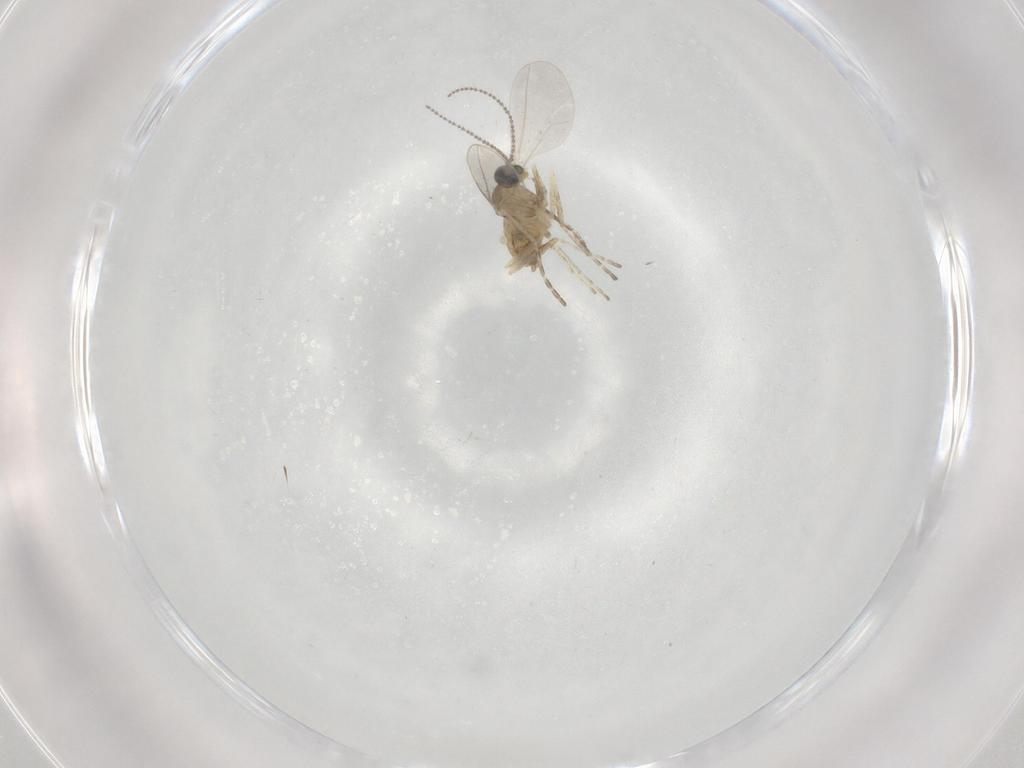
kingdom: Animalia
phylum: Arthropoda
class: Insecta
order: Diptera
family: Cecidomyiidae
